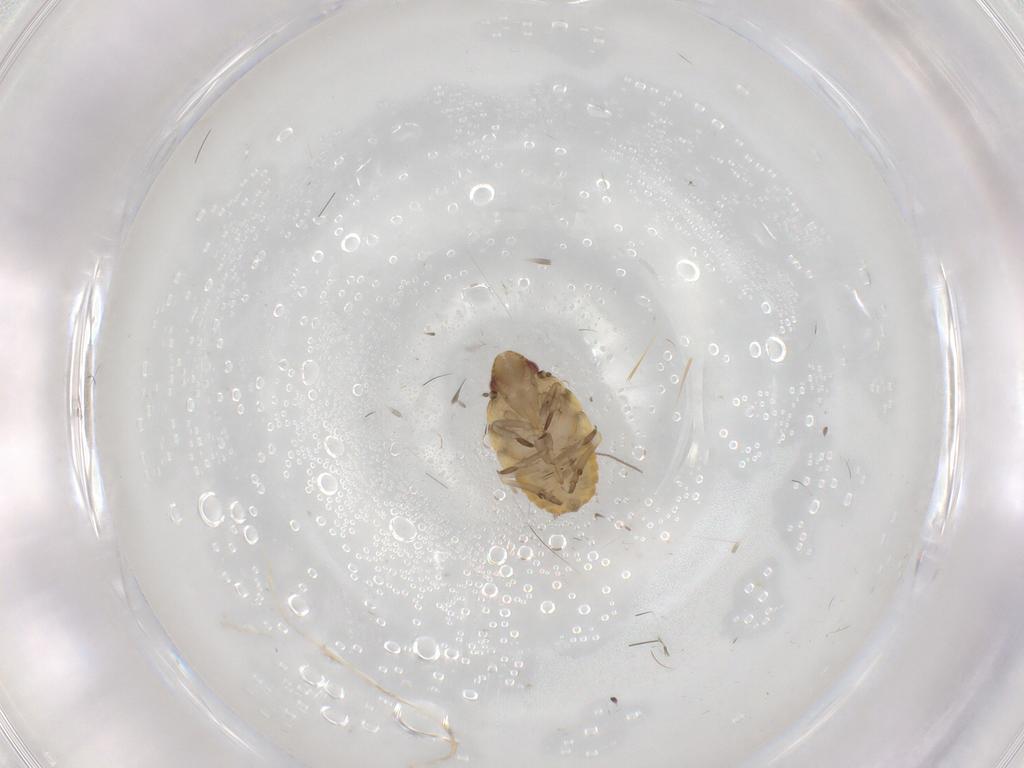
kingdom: Animalia
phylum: Arthropoda
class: Insecta
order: Hemiptera
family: Flatidae
